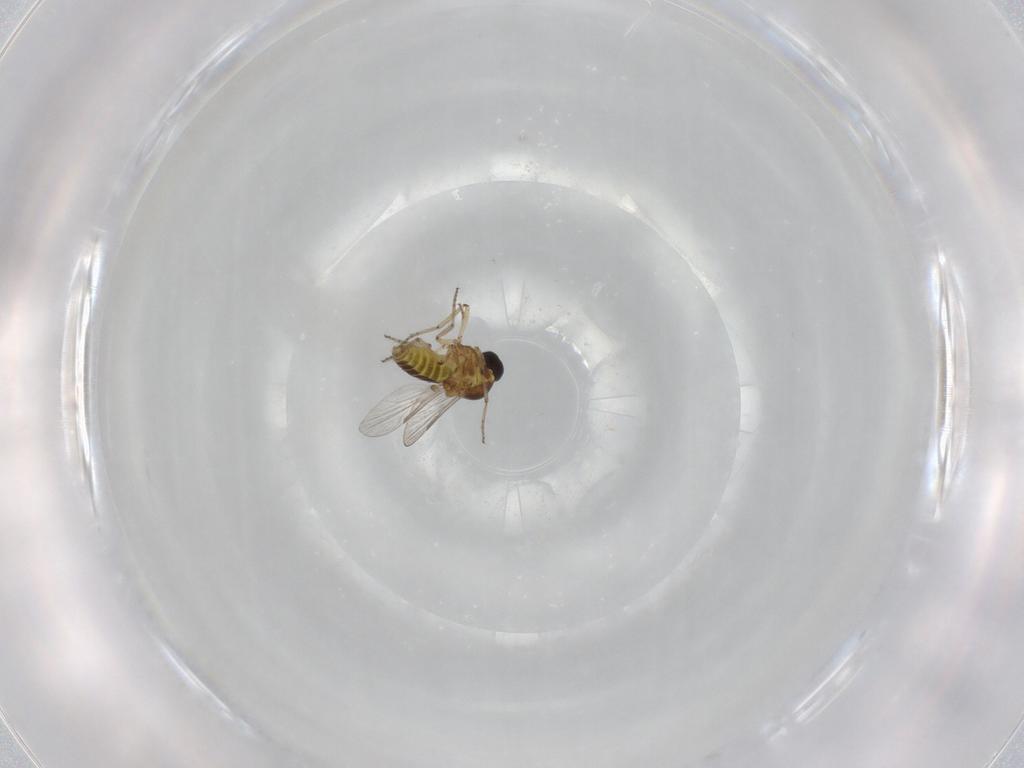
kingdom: Animalia
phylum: Arthropoda
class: Insecta
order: Diptera
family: Ceratopogonidae
